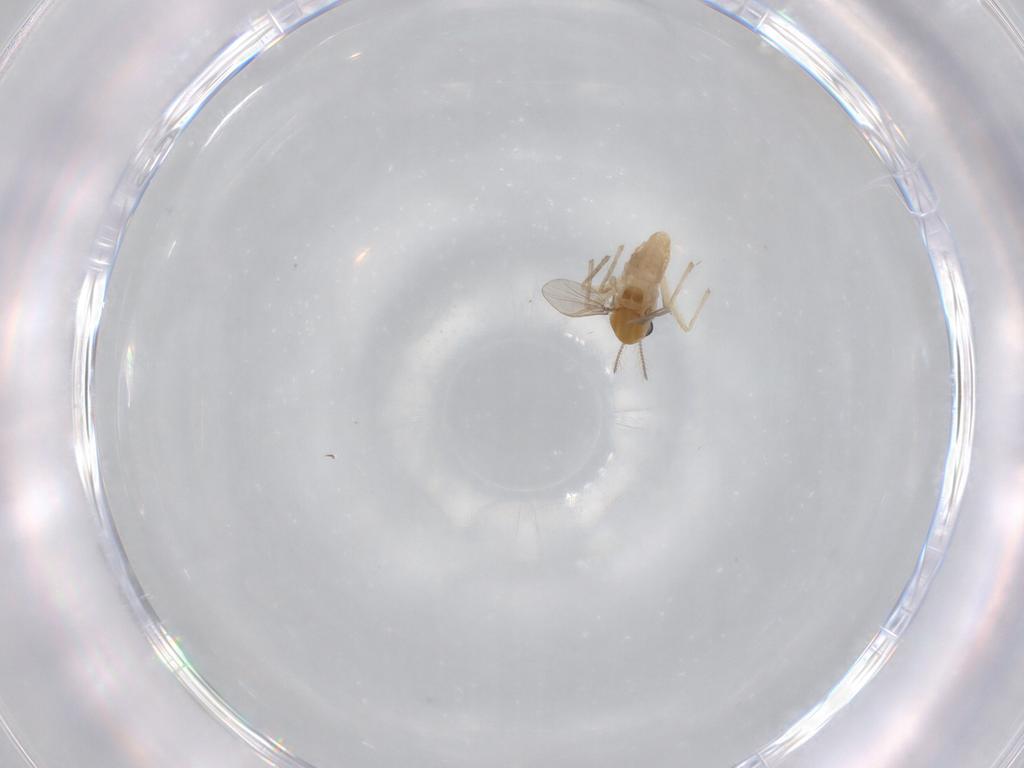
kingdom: Animalia
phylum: Arthropoda
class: Insecta
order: Diptera
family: Chironomidae
